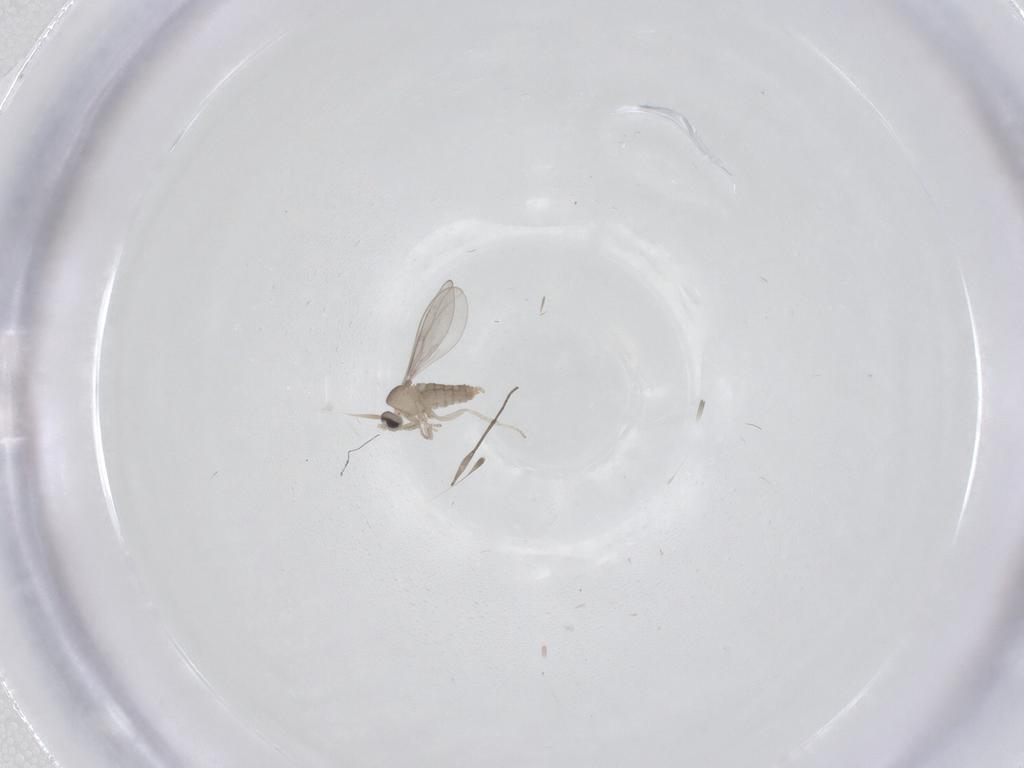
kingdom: Animalia
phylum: Arthropoda
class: Insecta
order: Diptera
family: Sciaridae
